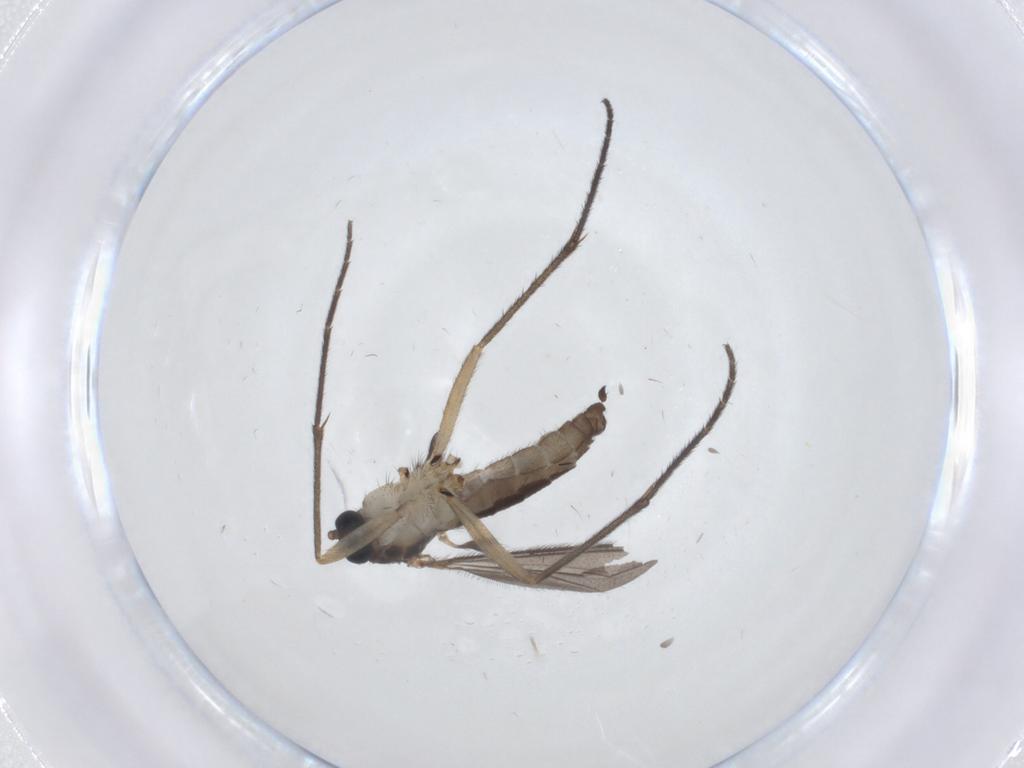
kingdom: Animalia
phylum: Arthropoda
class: Insecta
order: Diptera
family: Sciaridae
